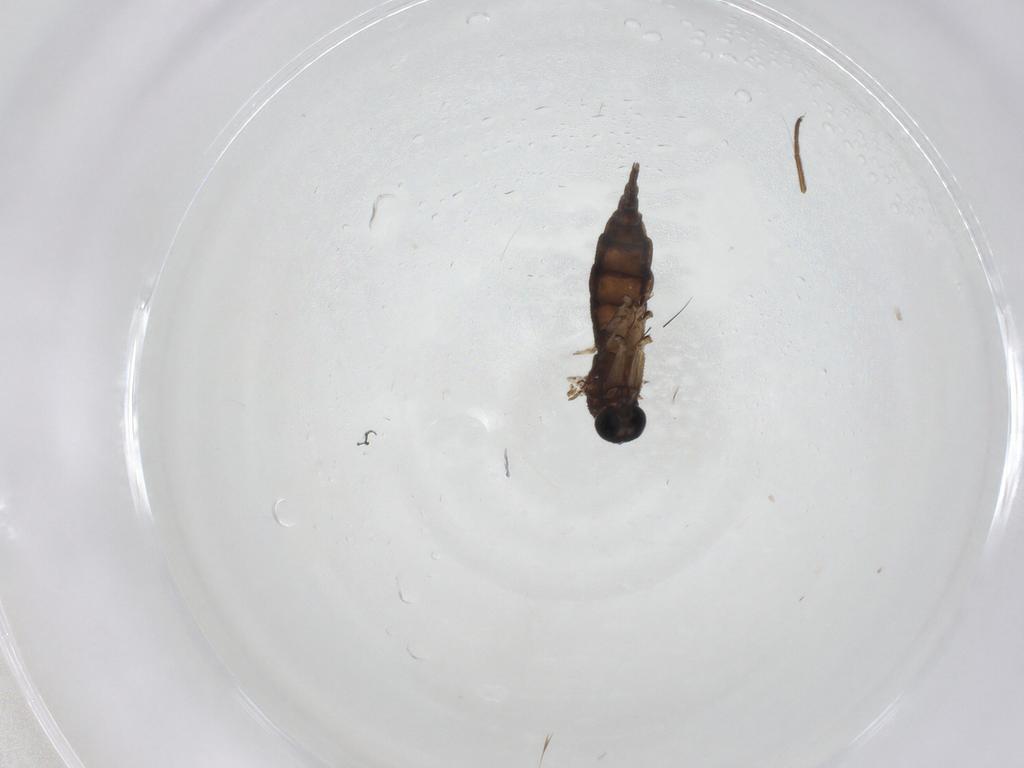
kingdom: Animalia
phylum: Arthropoda
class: Insecta
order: Diptera
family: Sciaridae
